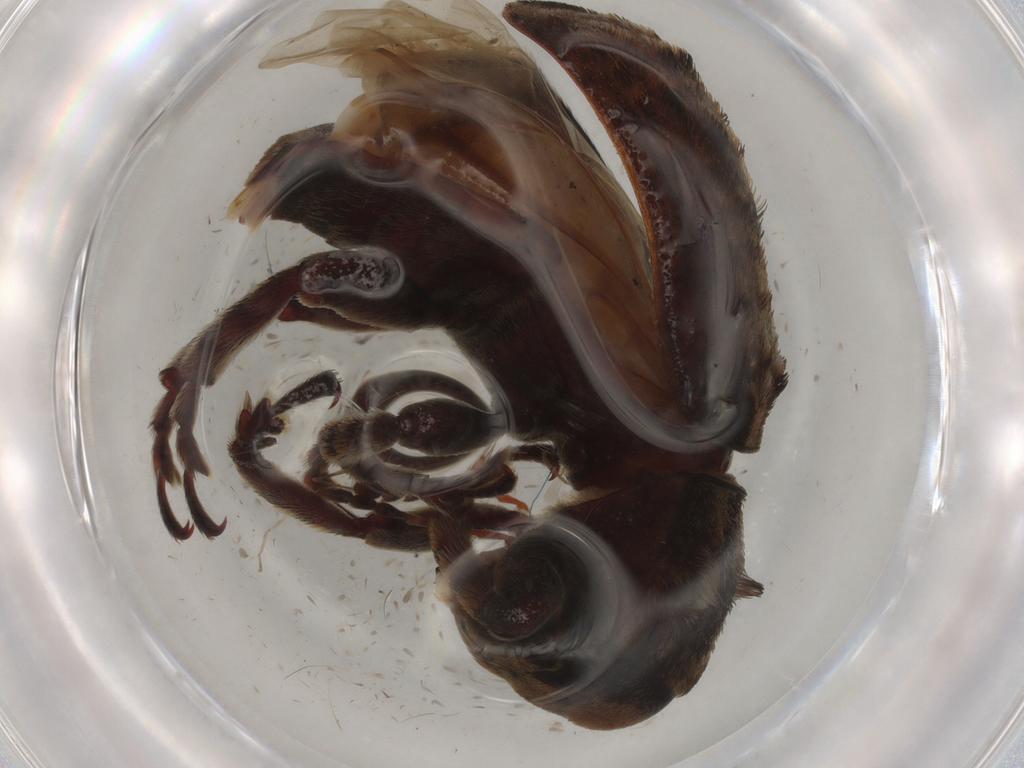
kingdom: Animalia
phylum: Arthropoda
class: Insecta
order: Coleoptera
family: Anthribidae
